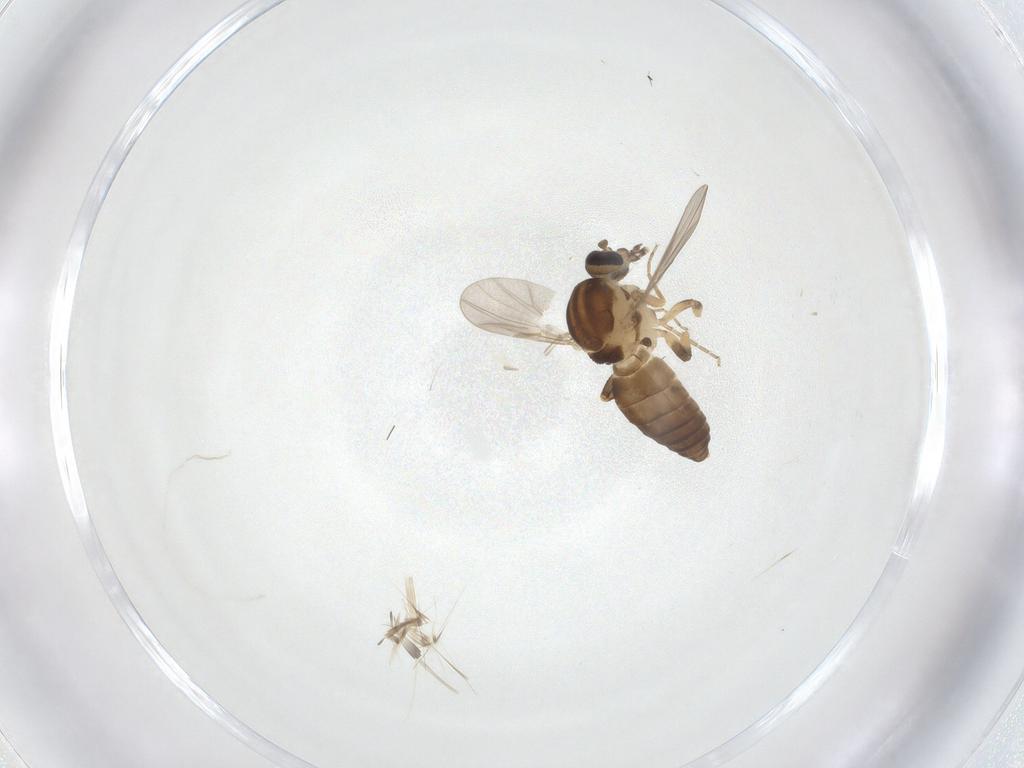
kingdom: Animalia
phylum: Arthropoda
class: Insecta
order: Diptera
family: Ceratopogonidae
